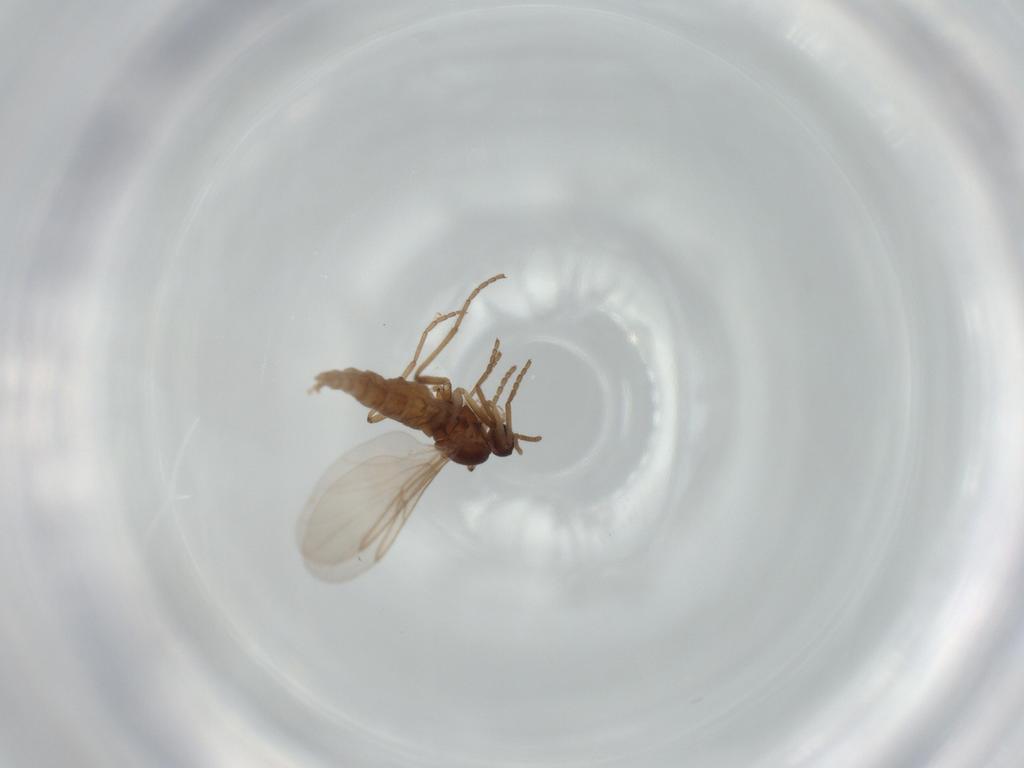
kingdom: Animalia
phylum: Arthropoda
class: Insecta
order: Diptera
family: Cecidomyiidae
